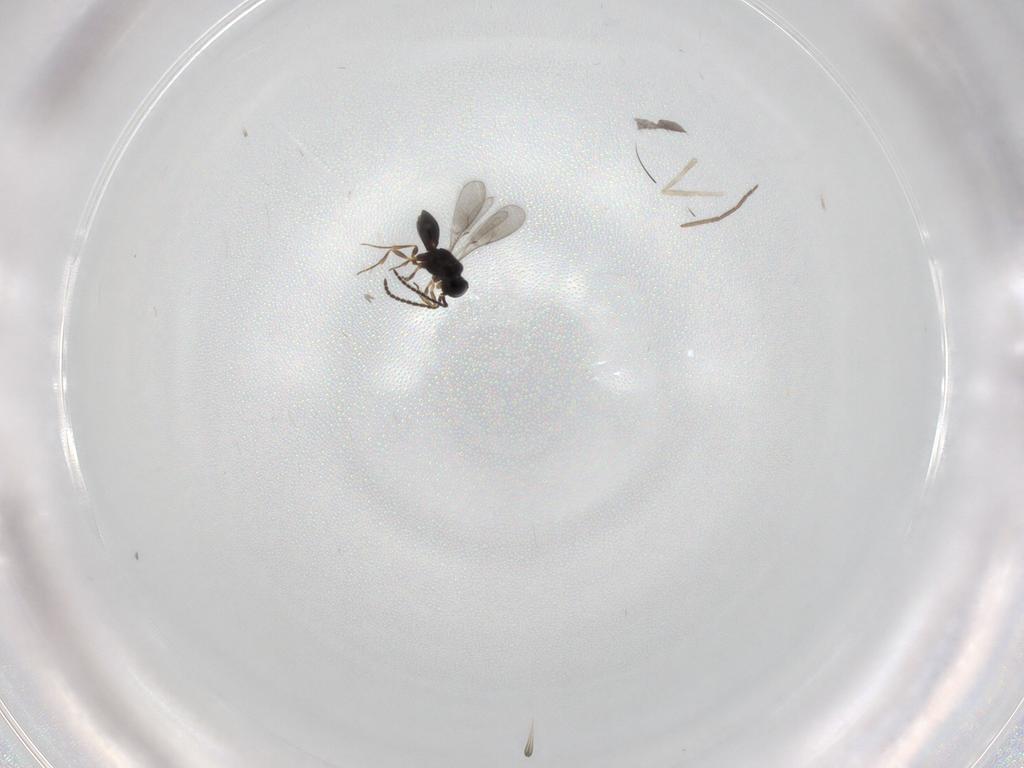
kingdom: Animalia
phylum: Arthropoda
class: Insecta
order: Hymenoptera
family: Scelionidae
